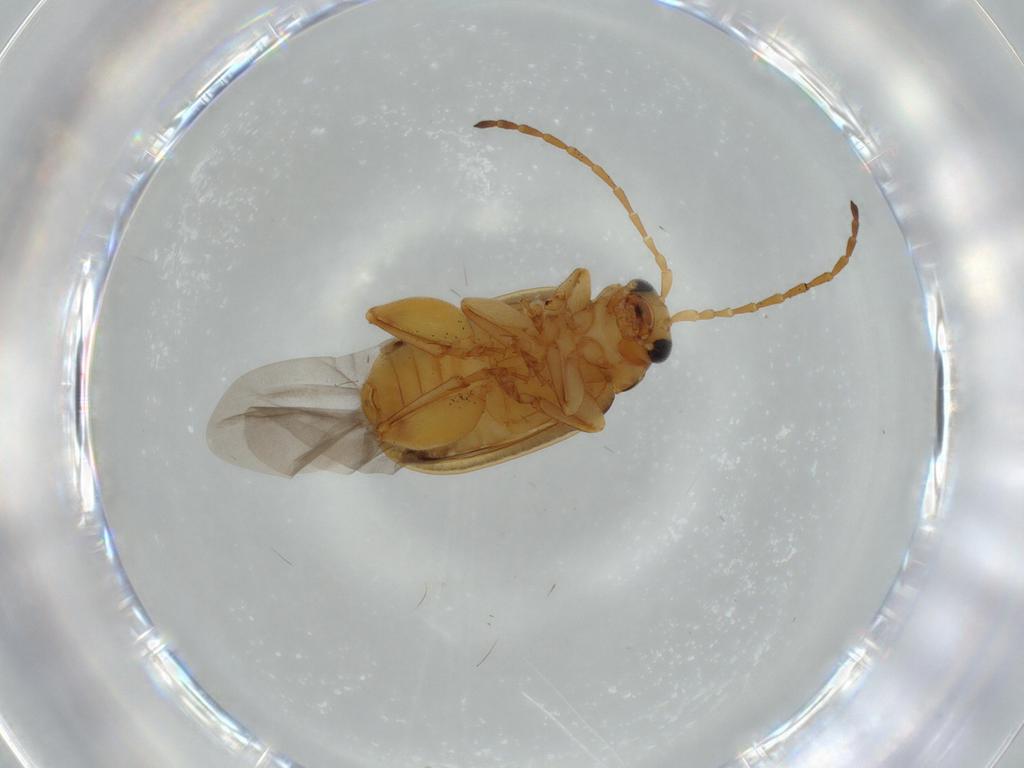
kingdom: Animalia
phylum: Arthropoda
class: Insecta
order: Coleoptera
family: Chrysomelidae
